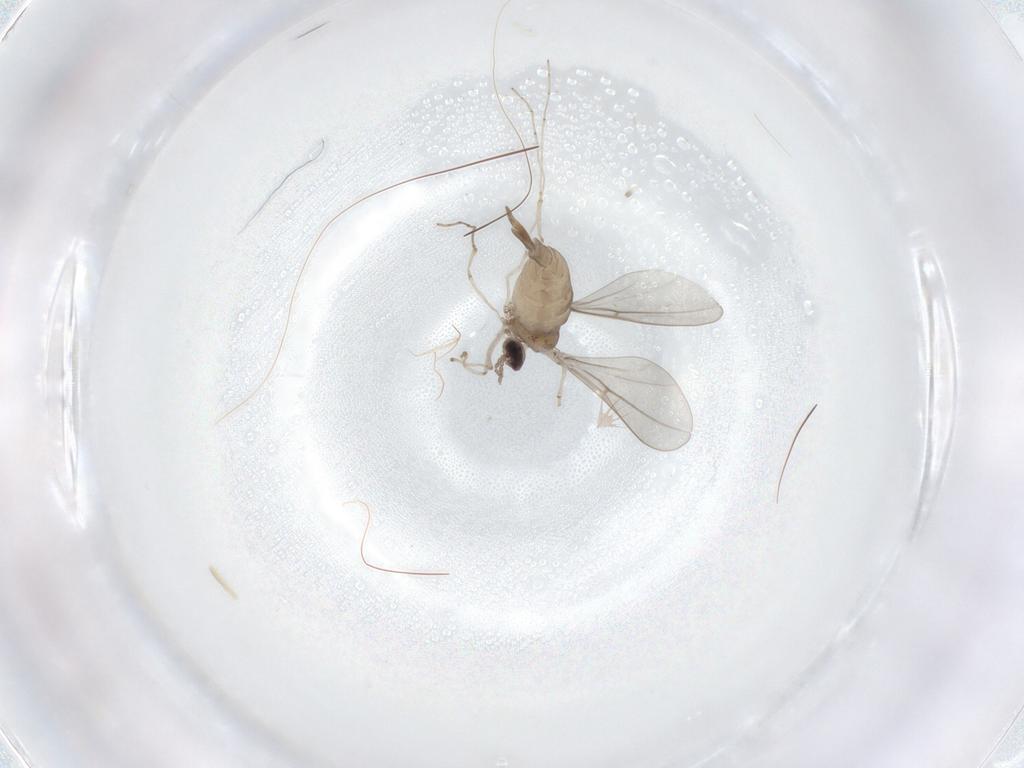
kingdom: Animalia
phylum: Arthropoda
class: Insecta
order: Diptera
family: Cecidomyiidae
